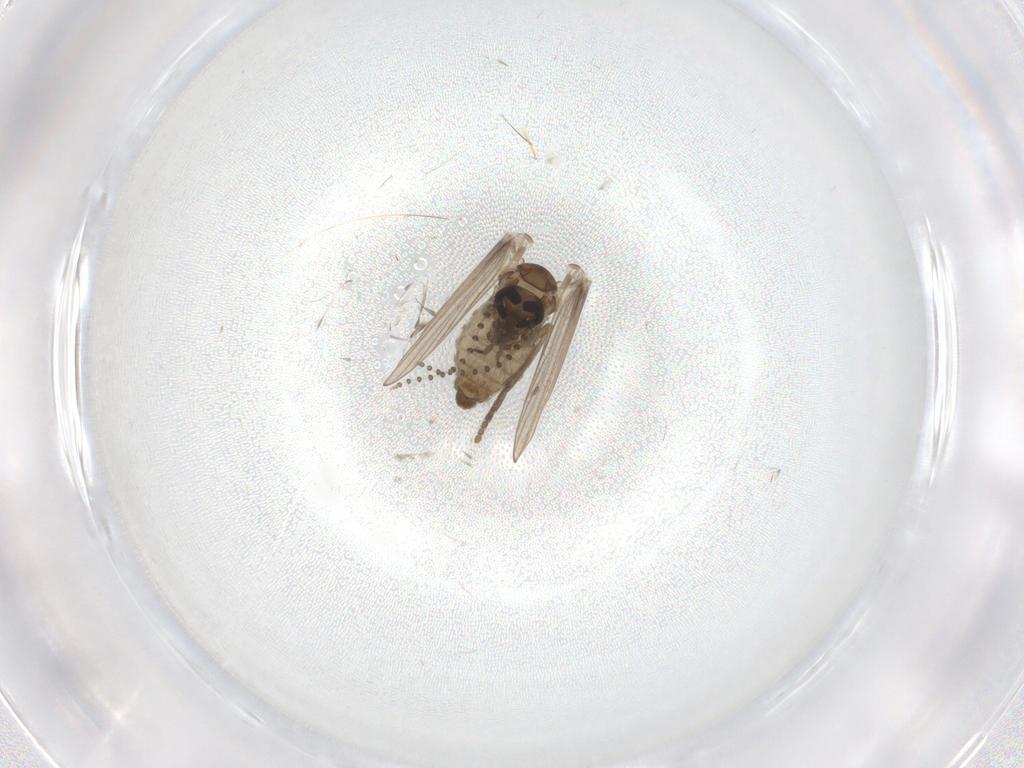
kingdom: Animalia
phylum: Arthropoda
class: Insecta
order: Diptera
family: Psychodidae
